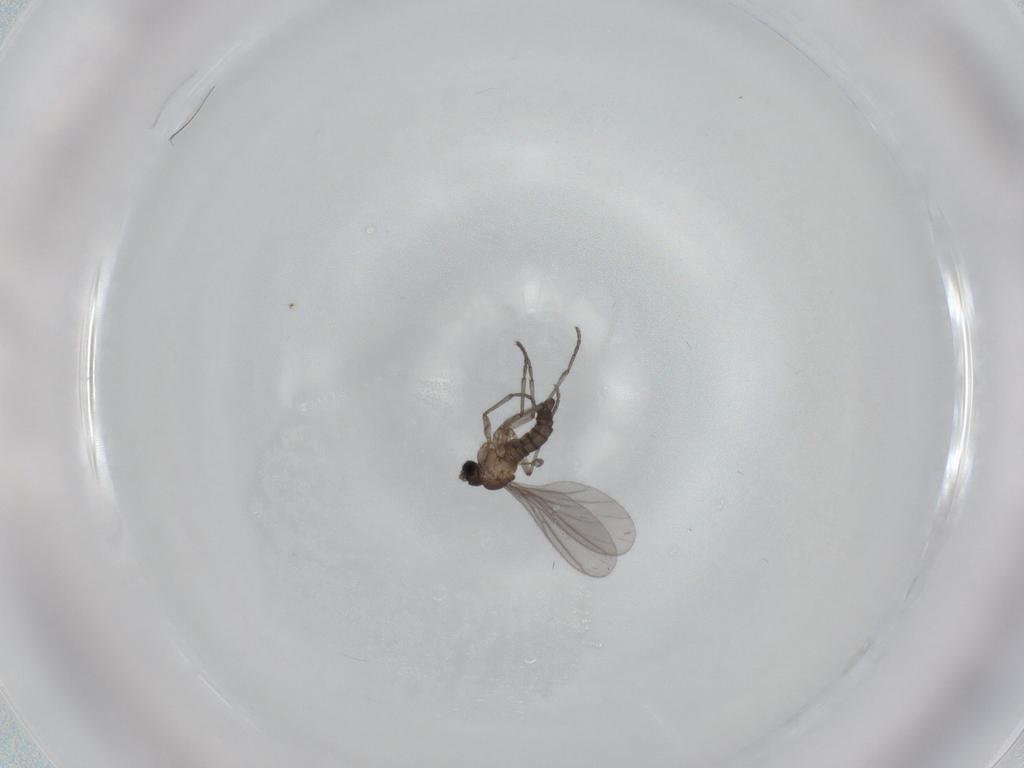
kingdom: Animalia
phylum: Arthropoda
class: Insecta
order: Diptera
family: Sciaridae
